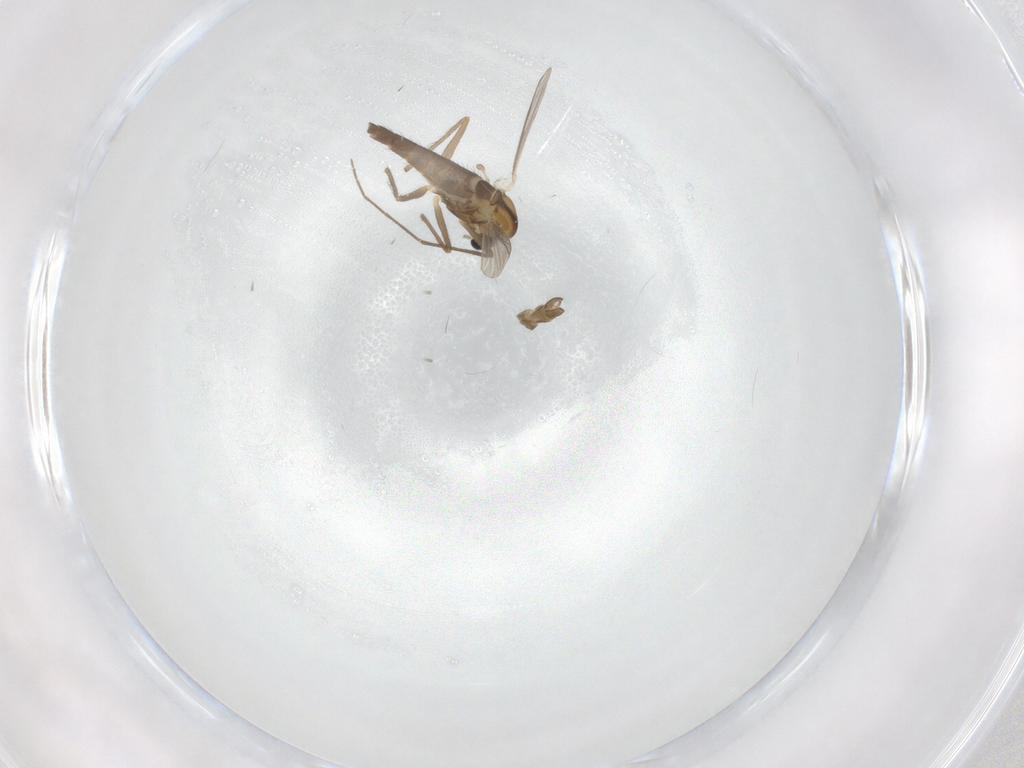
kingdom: Animalia
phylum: Arthropoda
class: Insecta
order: Diptera
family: Chironomidae
